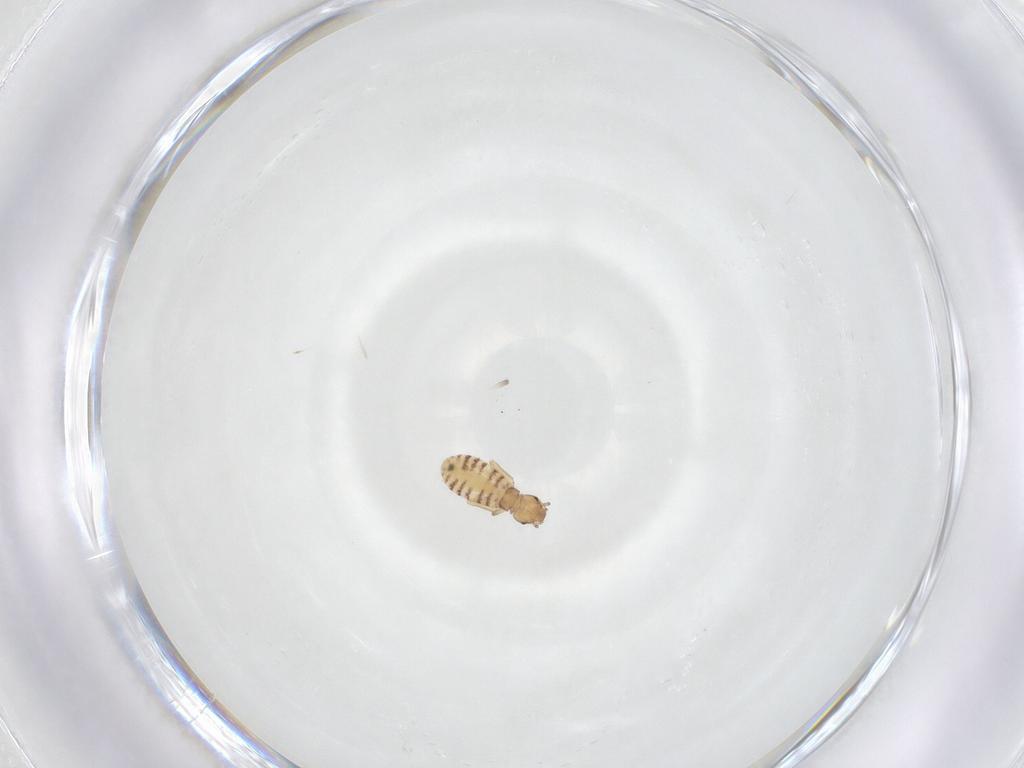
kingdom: Animalia
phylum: Arthropoda
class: Insecta
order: Psocodea
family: Liposcelididae
